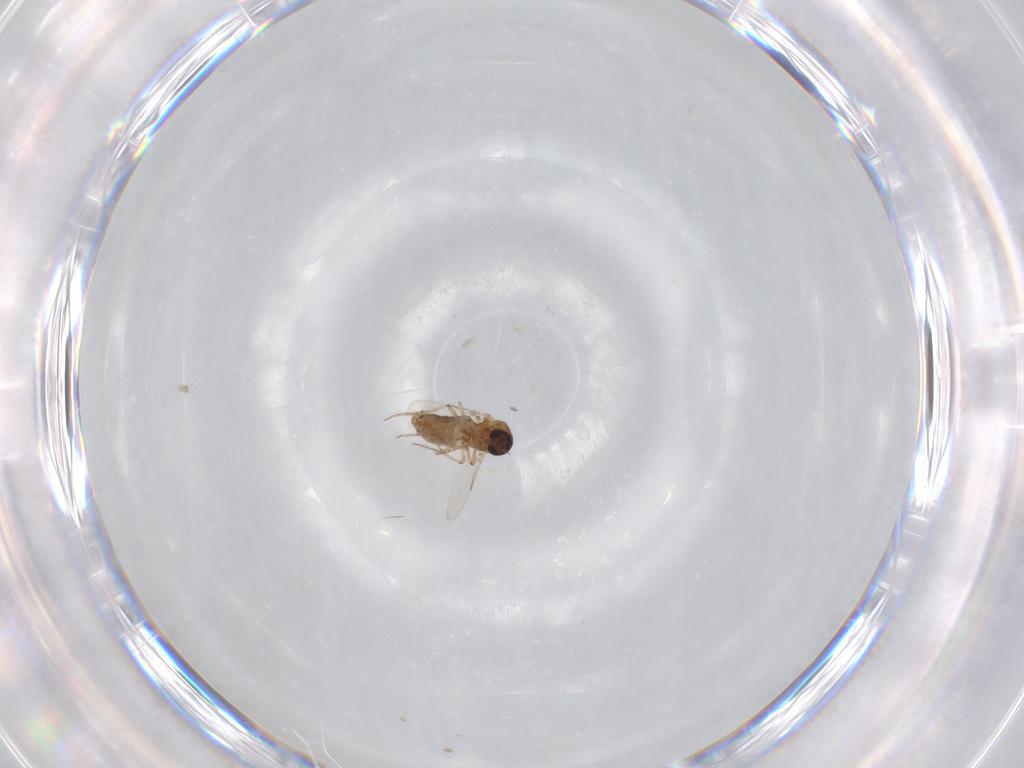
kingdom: Animalia
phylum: Arthropoda
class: Insecta
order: Diptera
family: Ceratopogonidae
